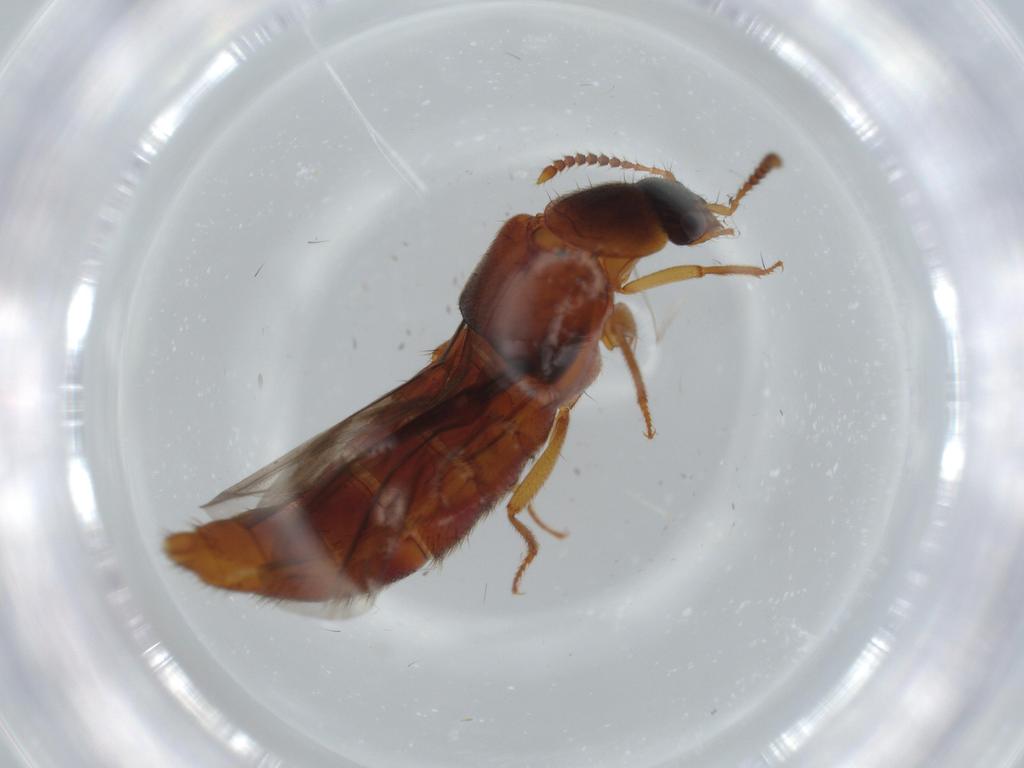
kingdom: Animalia
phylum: Arthropoda
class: Insecta
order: Coleoptera
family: Staphylinidae
